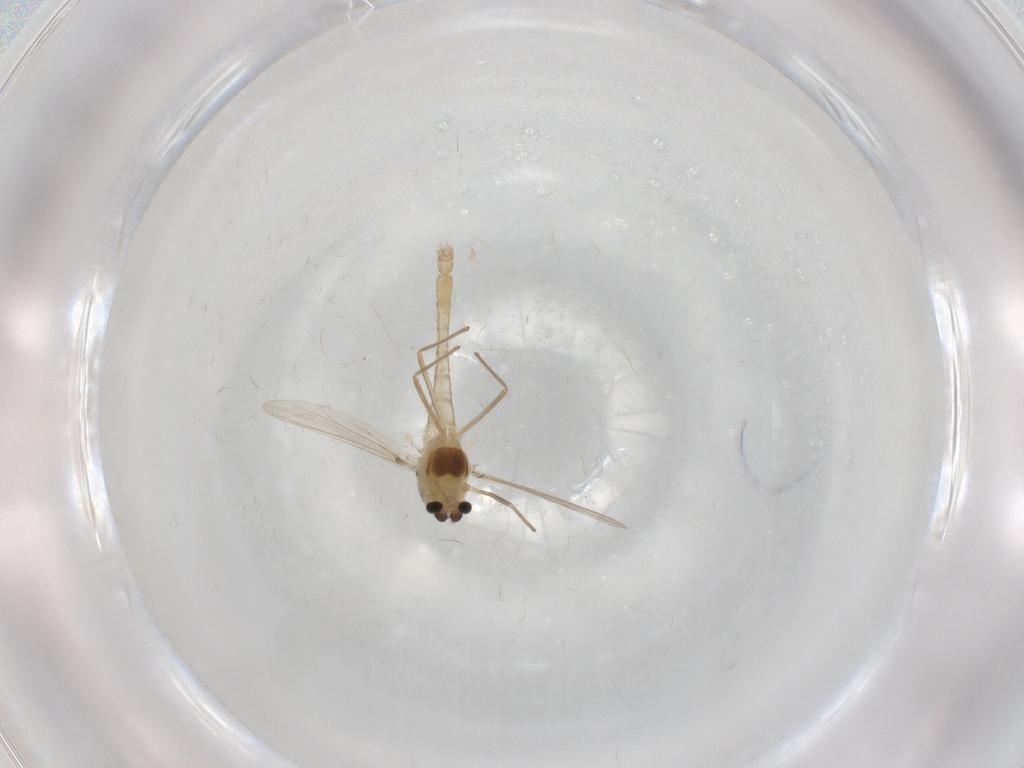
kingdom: Animalia
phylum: Arthropoda
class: Insecta
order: Diptera
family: Chironomidae
